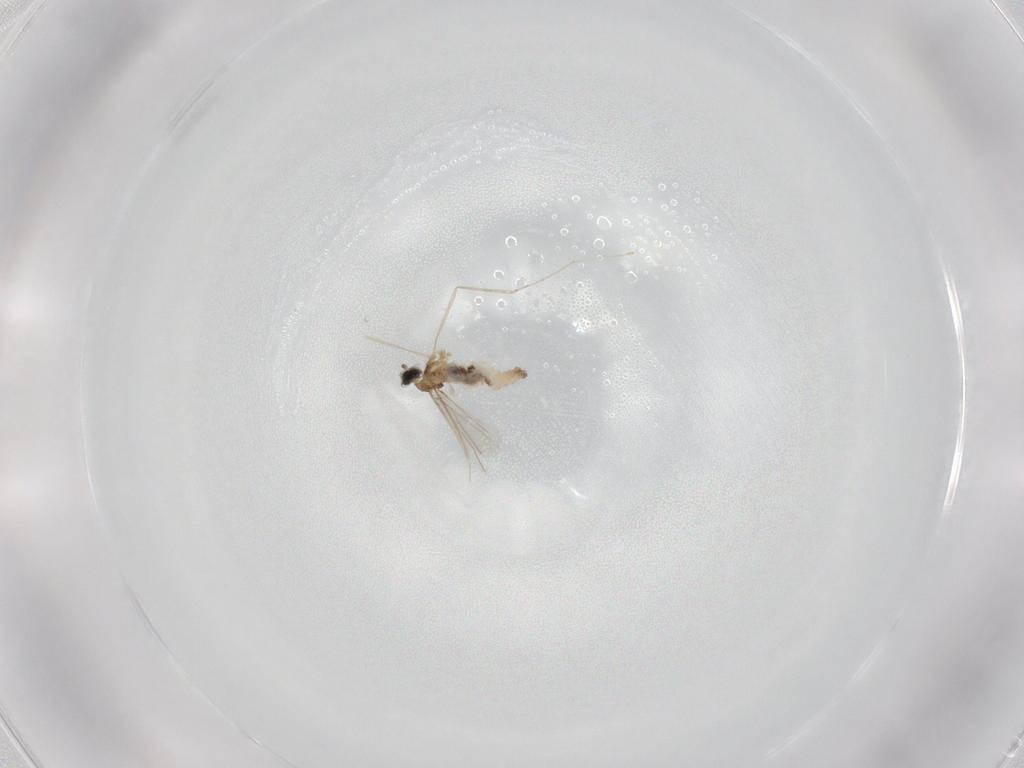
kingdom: Animalia
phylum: Arthropoda
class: Insecta
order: Diptera
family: Cecidomyiidae
